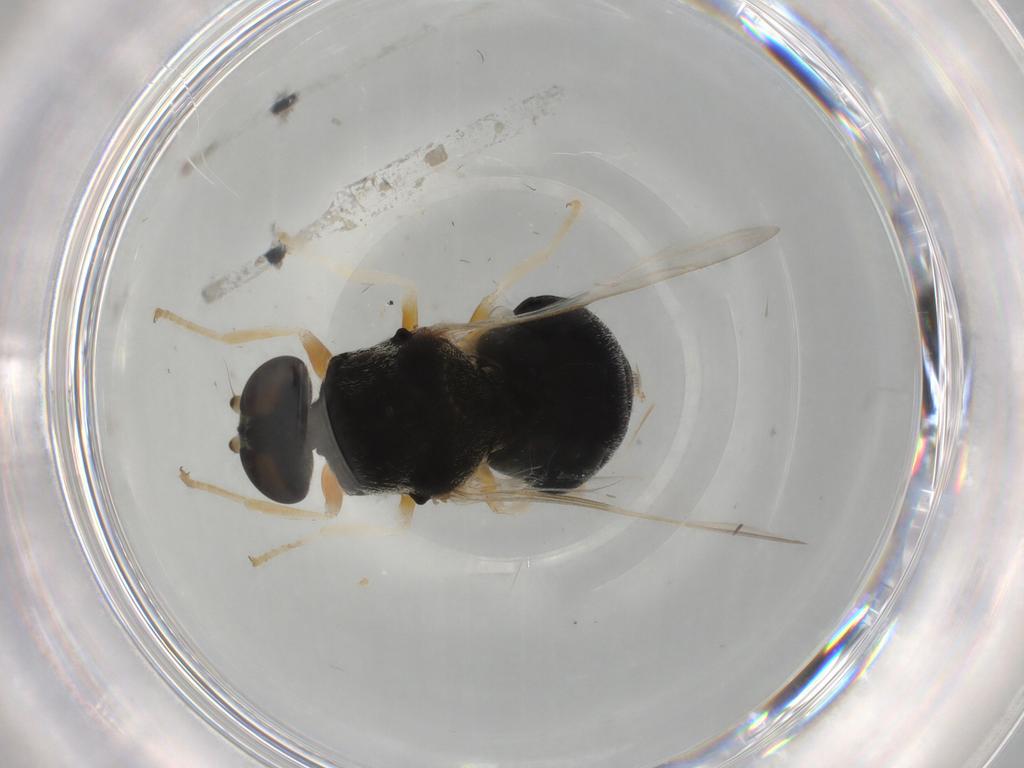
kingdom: Animalia
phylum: Arthropoda
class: Insecta
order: Diptera
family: Stratiomyidae
